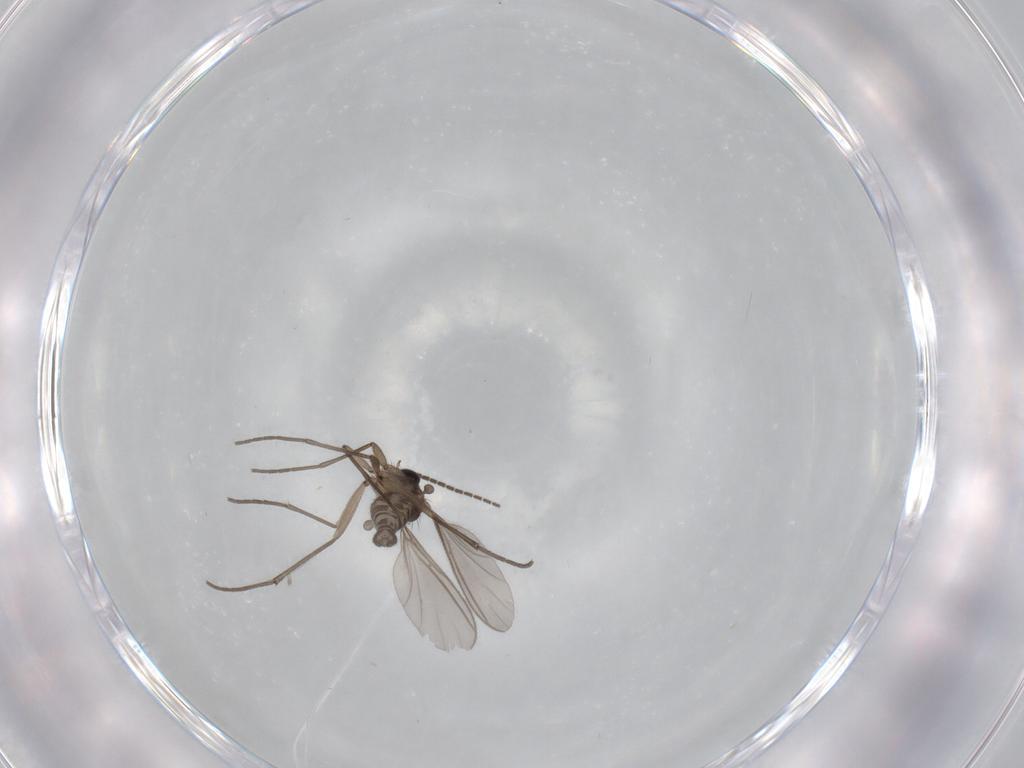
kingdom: Animalia
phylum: Arthropoda
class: Insecta
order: Diptera
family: Sciaridae
